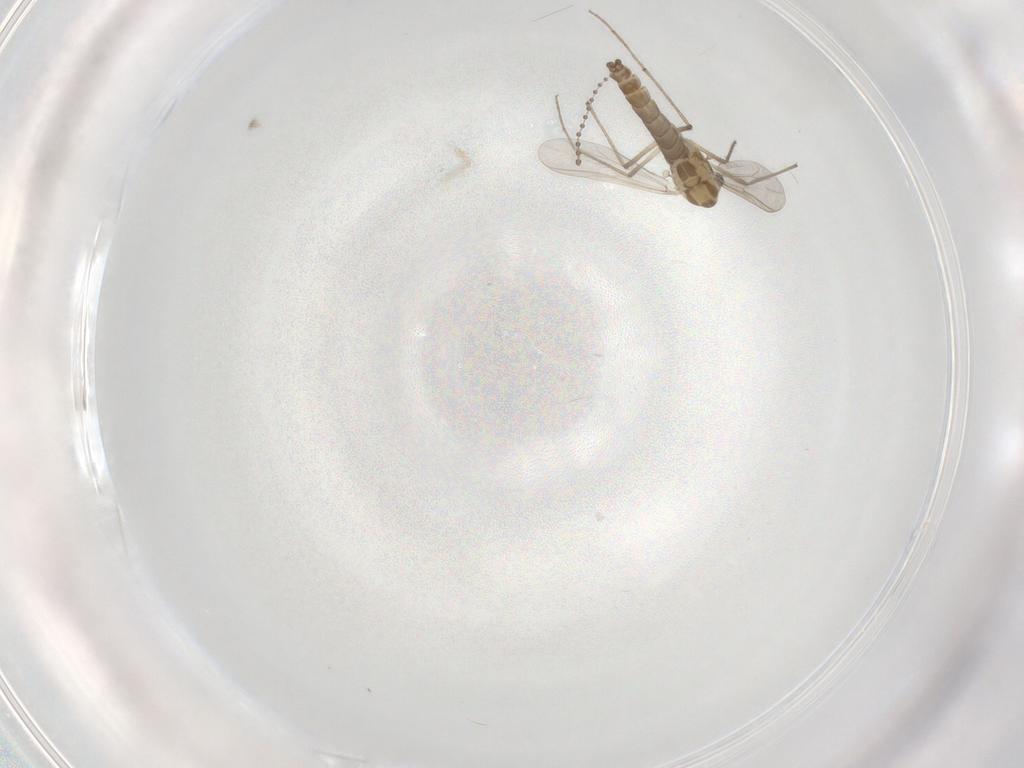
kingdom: Animalia
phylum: Arthropoda
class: Insecta
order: Diptera
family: Chironomidae
